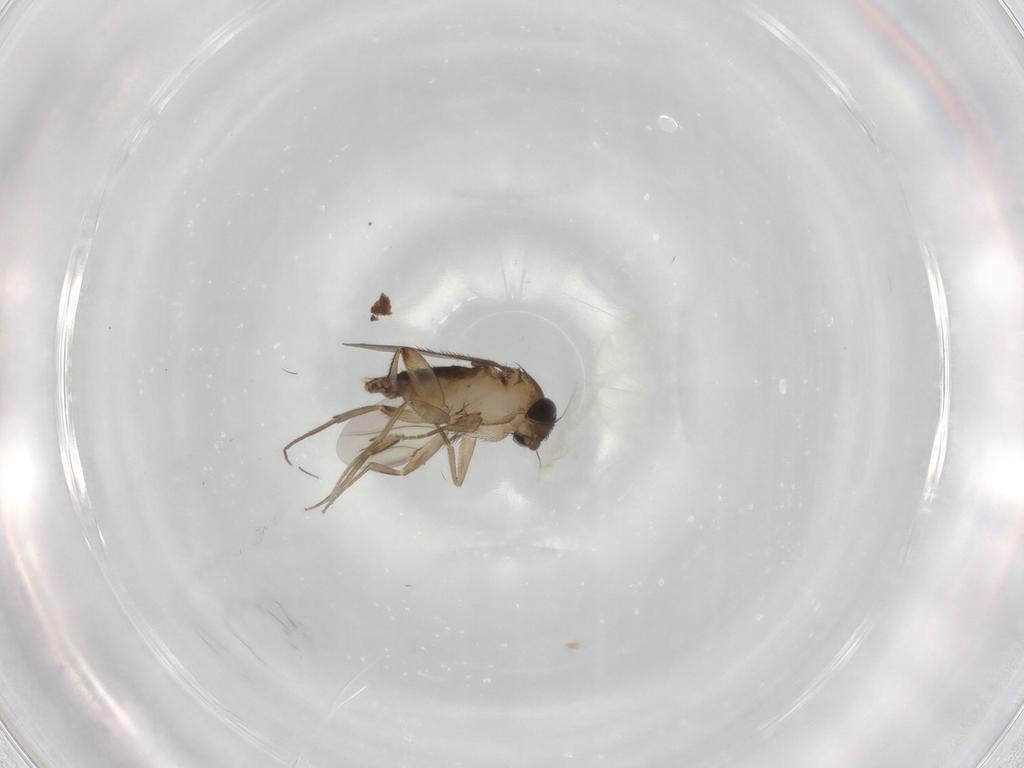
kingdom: Animalia
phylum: Arthropoda
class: Insecta
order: Diptera
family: Phoridae
